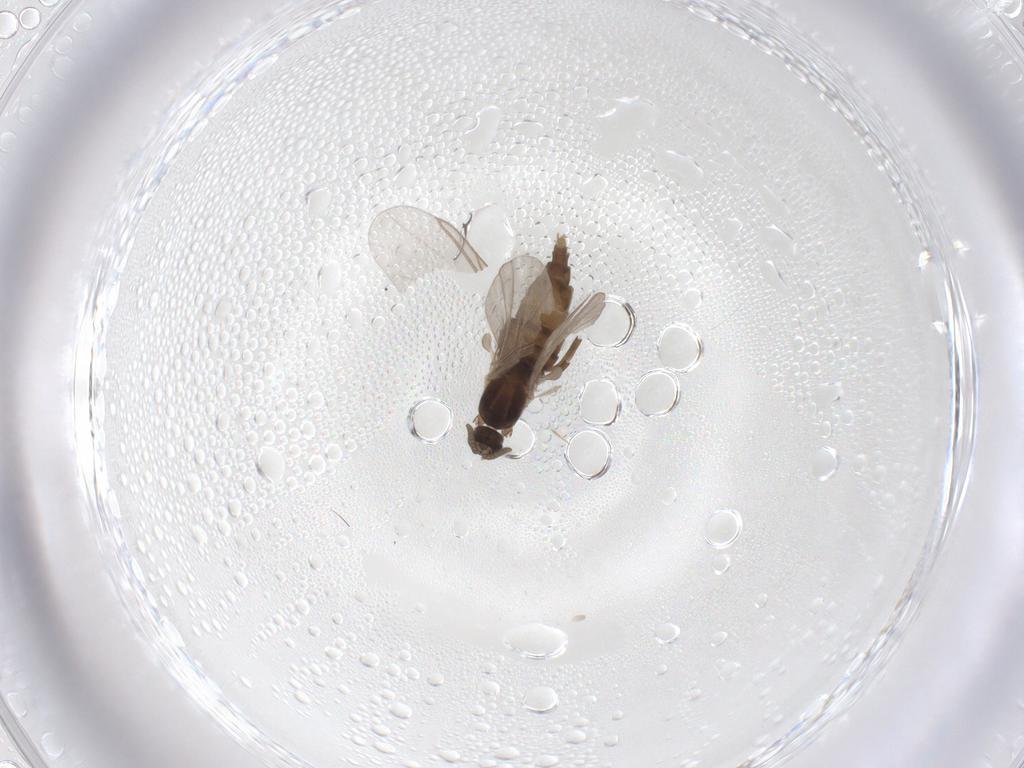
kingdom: Animalia
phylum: Arthropoda
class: Insecta
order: Diptera
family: Cecidomyiidae
